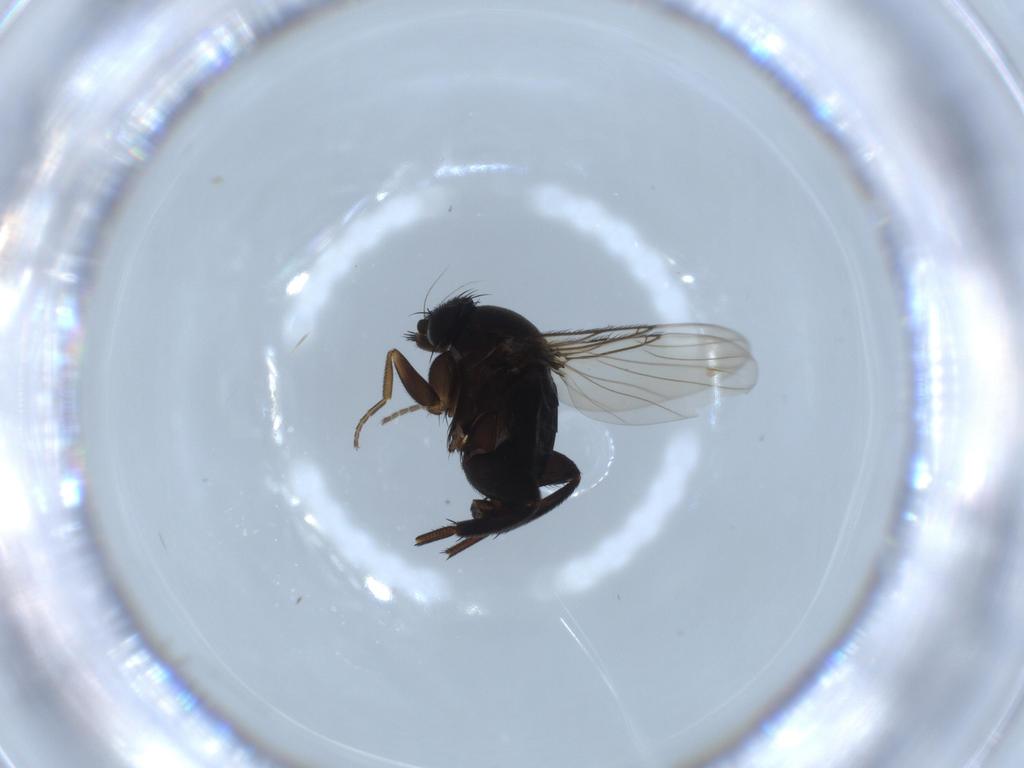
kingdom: Animalia
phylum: Arthropoda
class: Insecta
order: Diptera
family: Phoridae
